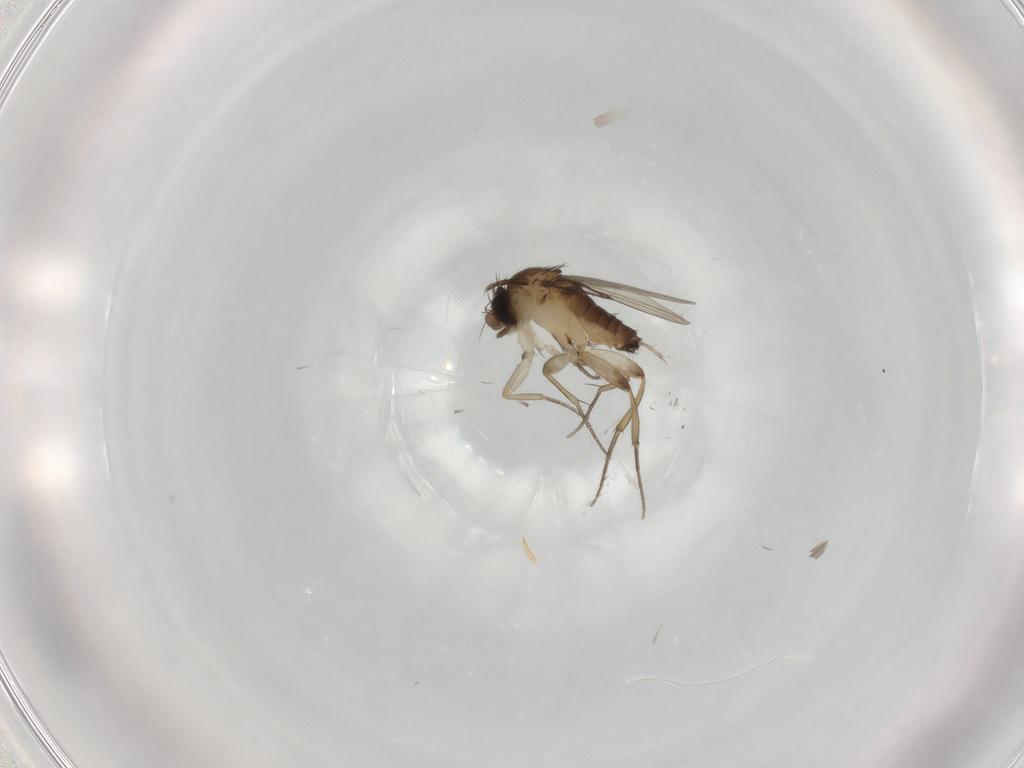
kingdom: Animalia
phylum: Arthropoda
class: Insecta
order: Diptera
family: Phoridae
